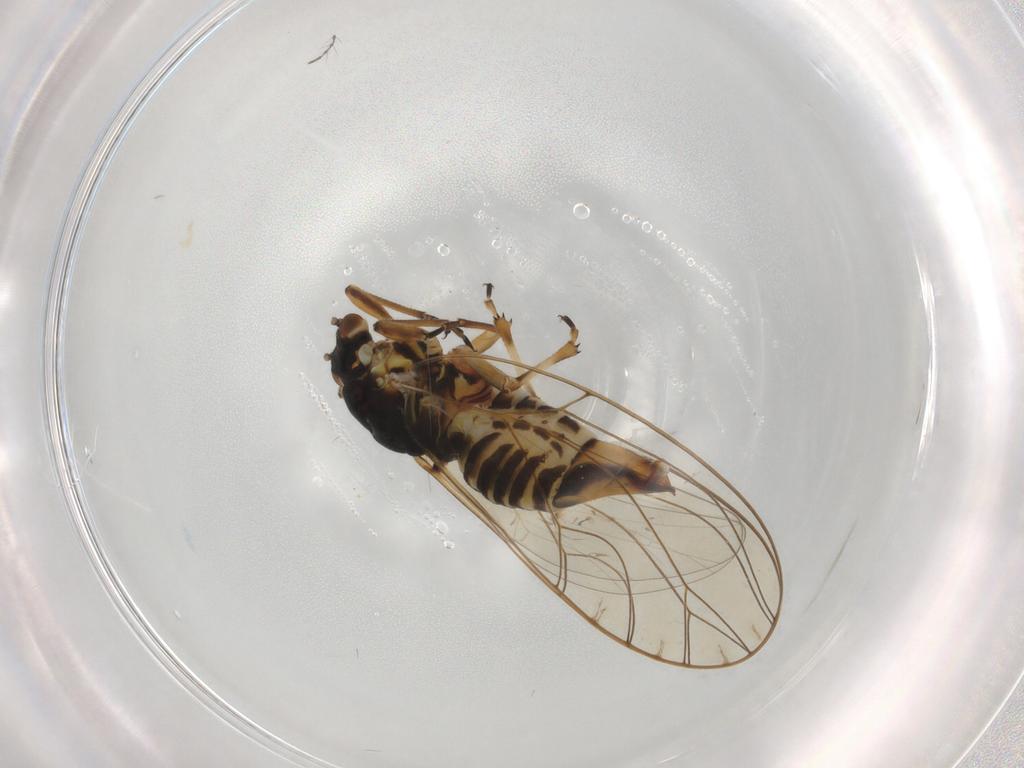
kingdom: Animalia
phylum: Arthropoda
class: Insecta
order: Hemiptera
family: Triozidae
